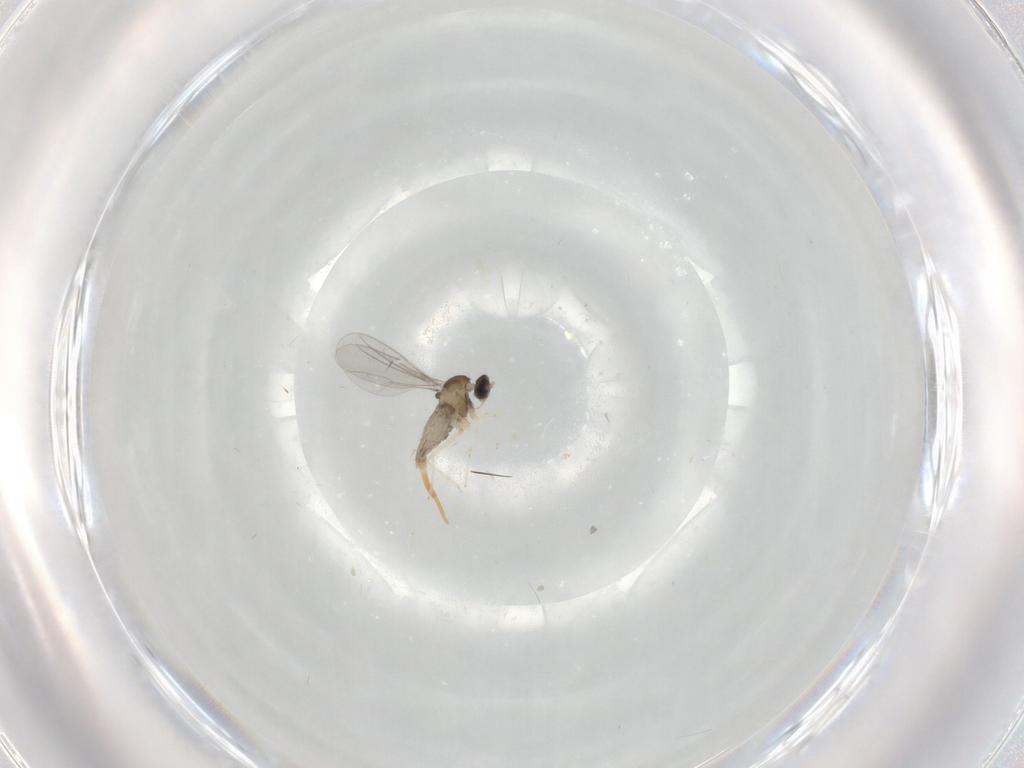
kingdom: Animalia
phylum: Arthropoda
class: Insecta
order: Diptera
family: Cecidomyiidae
